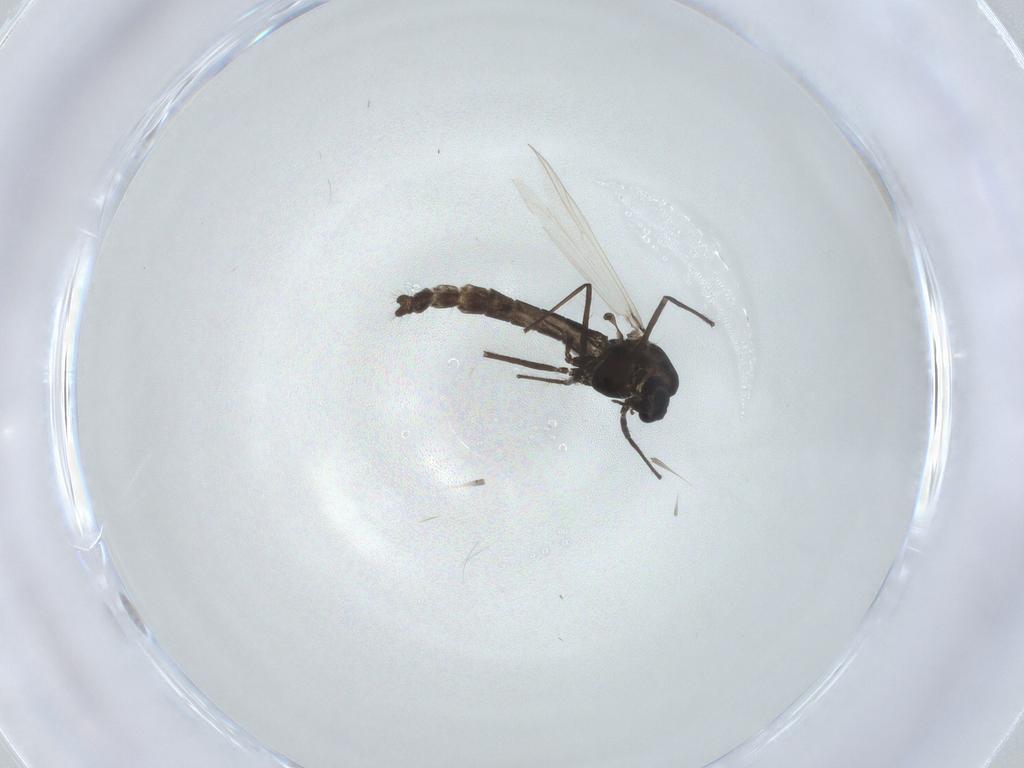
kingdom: Animalia
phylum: Arthropoda
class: Insecta
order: Diptera
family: Chironomidae
